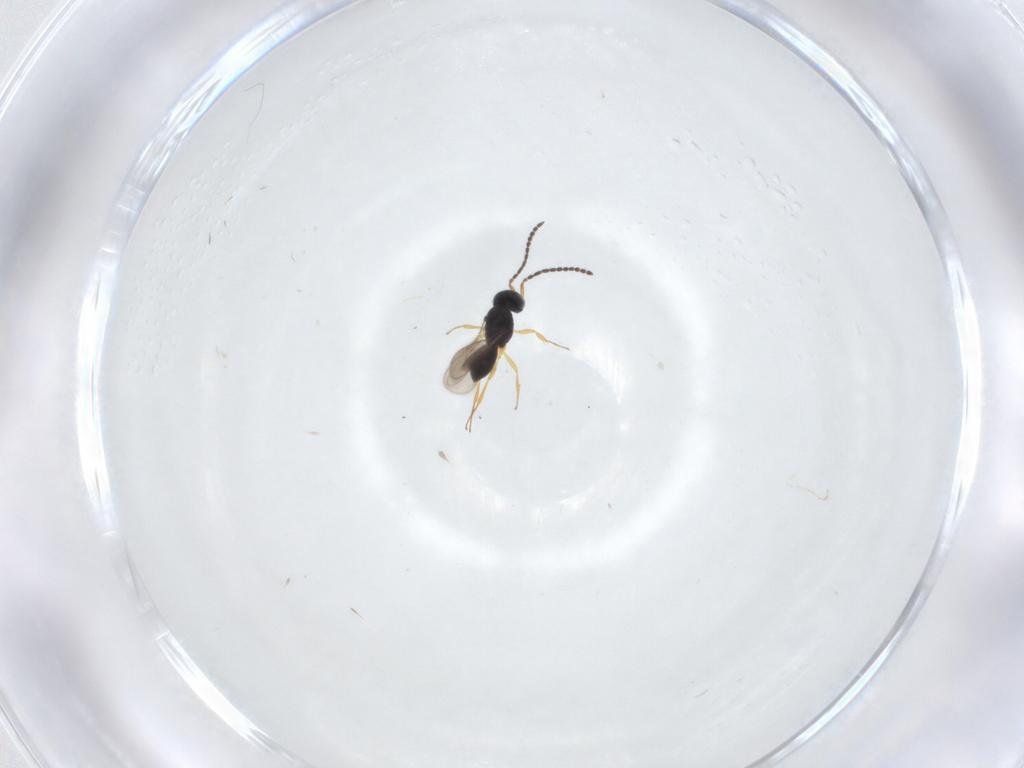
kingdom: Animalia
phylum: Arthropoda
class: Insecta
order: Hymenoptera
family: Scelionidae
